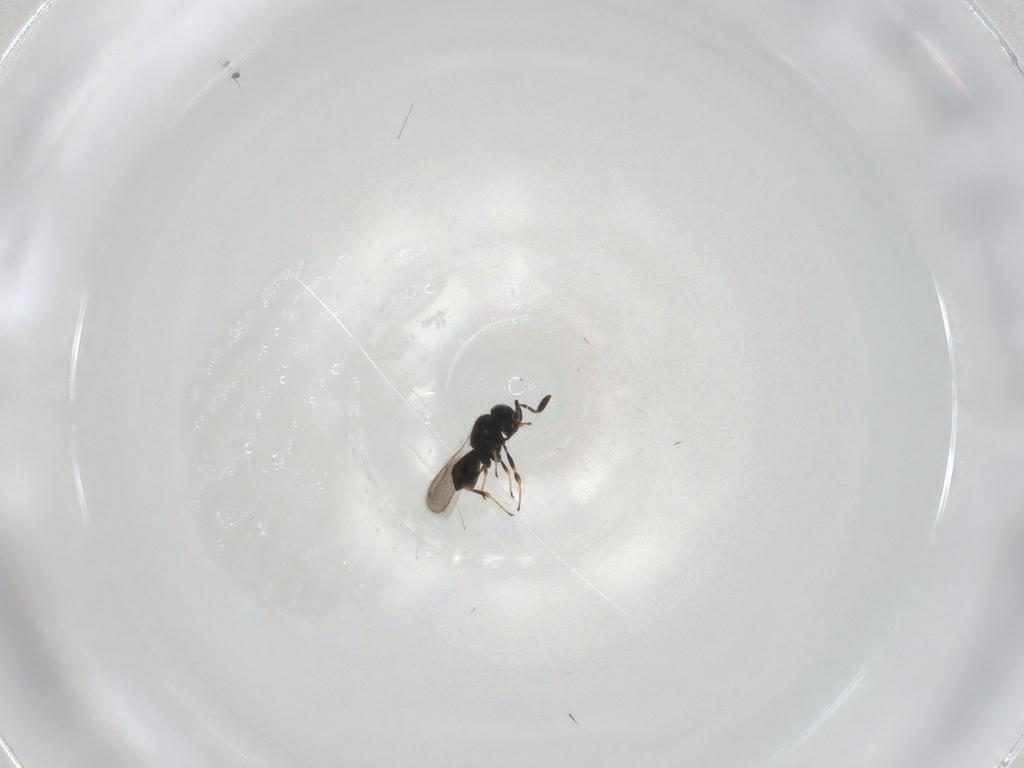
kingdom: Animalia
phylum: Arthropoda
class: Insecta
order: Hymenoptera
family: Scelionidae
